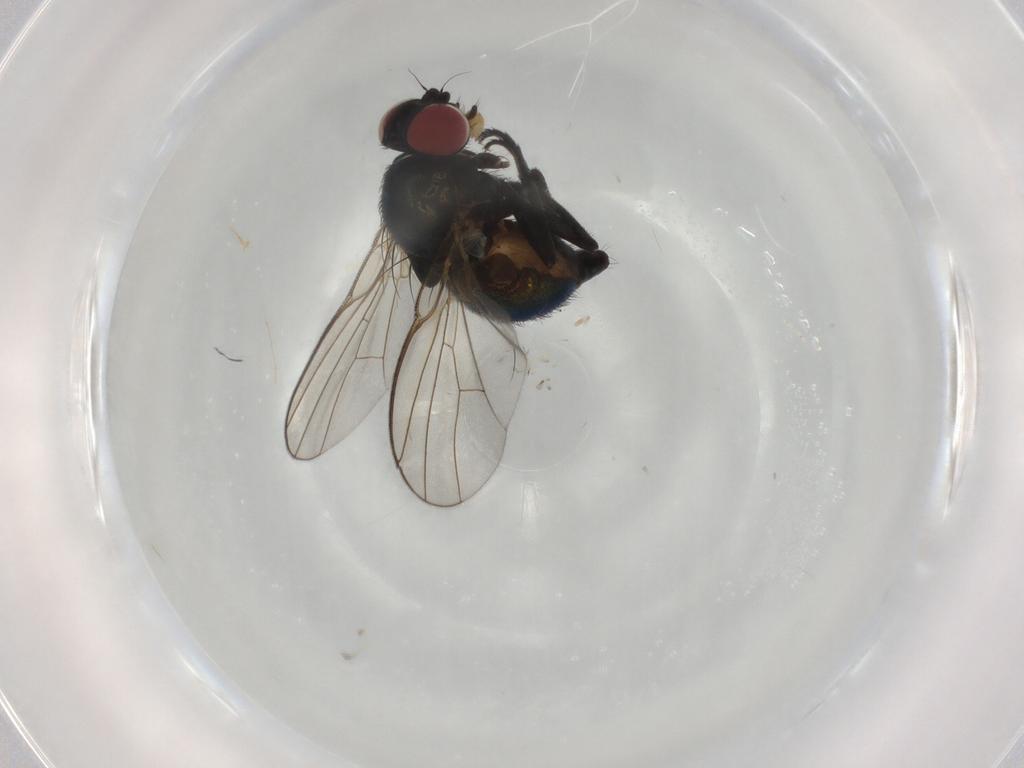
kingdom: Animalia
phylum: Arthropoda
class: Insecta
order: Diptera
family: Agromyzidae
